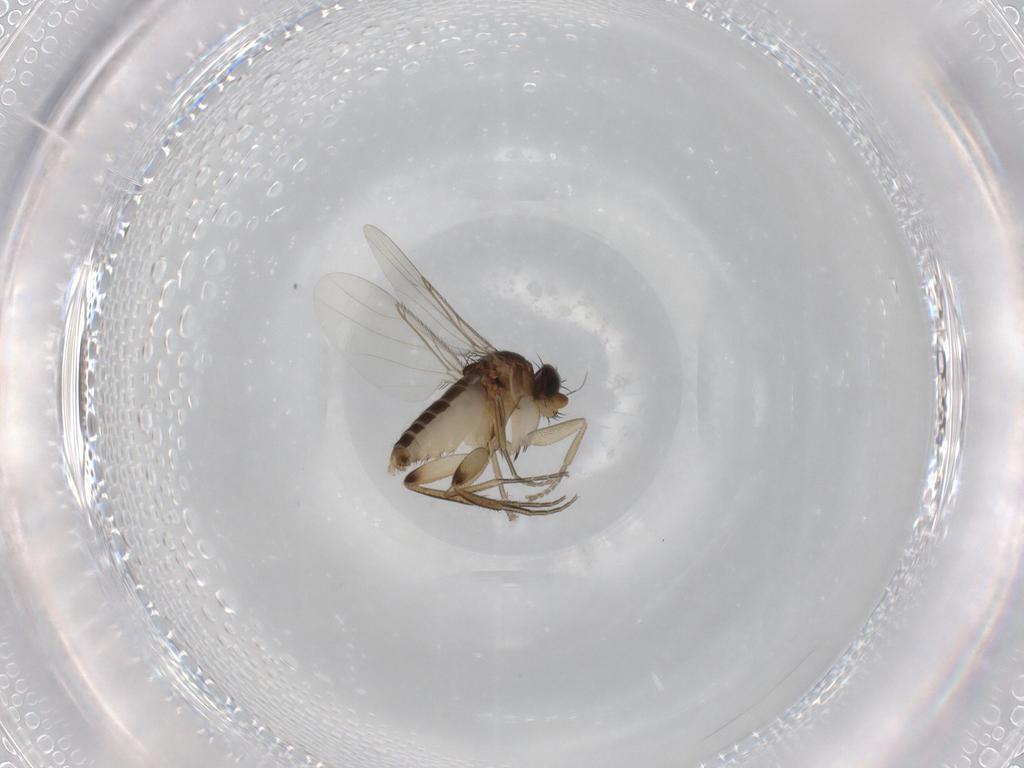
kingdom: Animalia
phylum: Arthropoda
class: Insecta
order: Diptera
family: Phoridae
